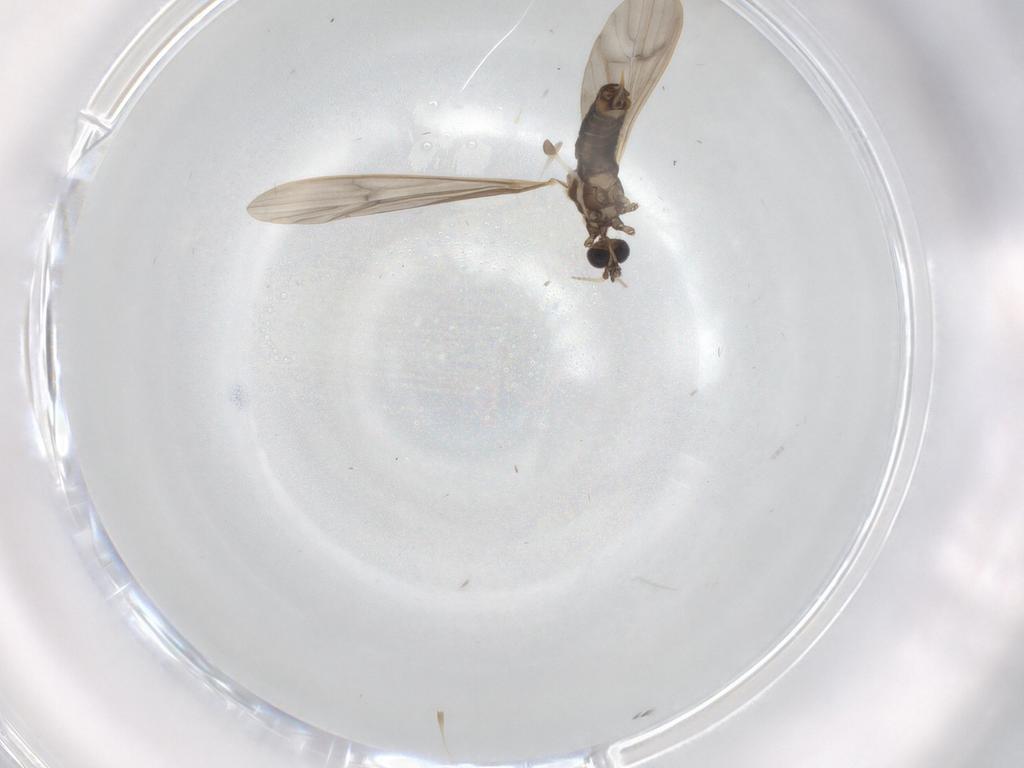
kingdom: Animalia
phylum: Arthropoda
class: Insecta
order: Diptera
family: Limoniidae
